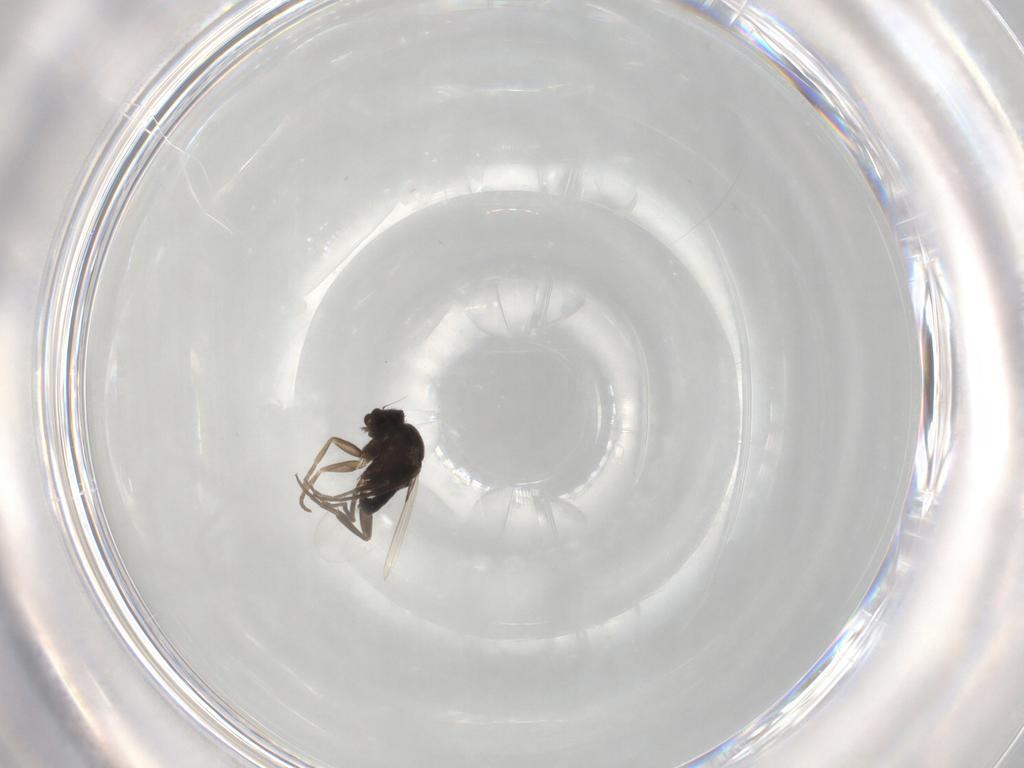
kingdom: Animalia
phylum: Arthropoda
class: Insecta
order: Diptera
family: Phoridae
